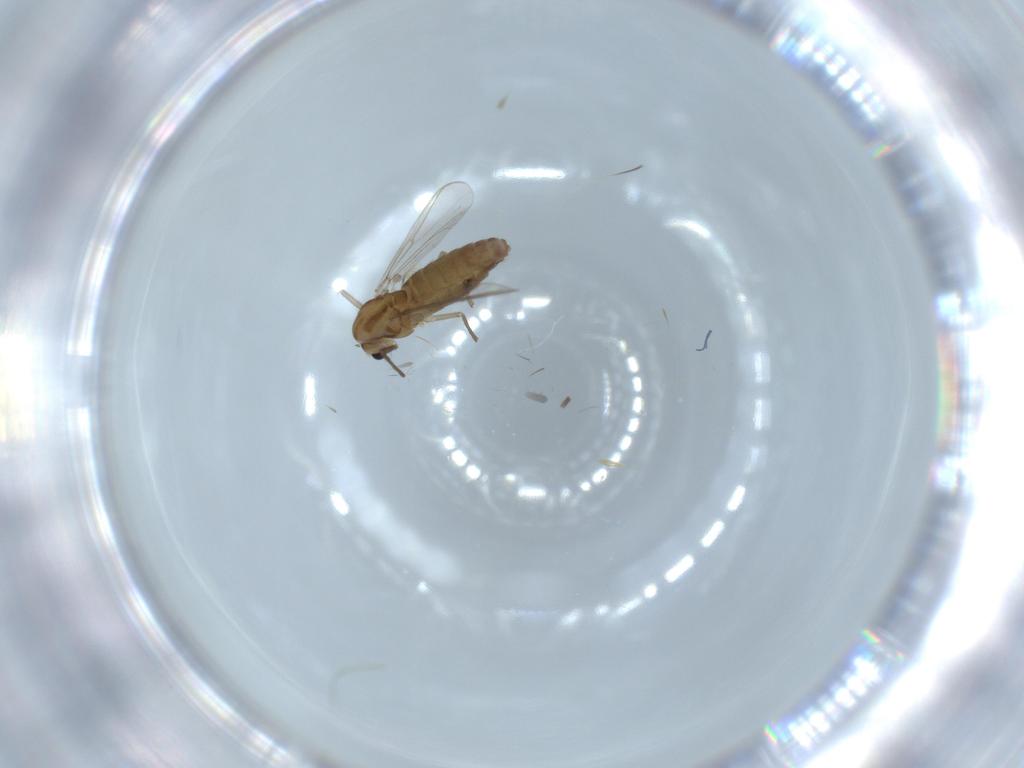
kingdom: Animalia
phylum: Arthropoda
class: Insecta
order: Diptera
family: Chironomidae
